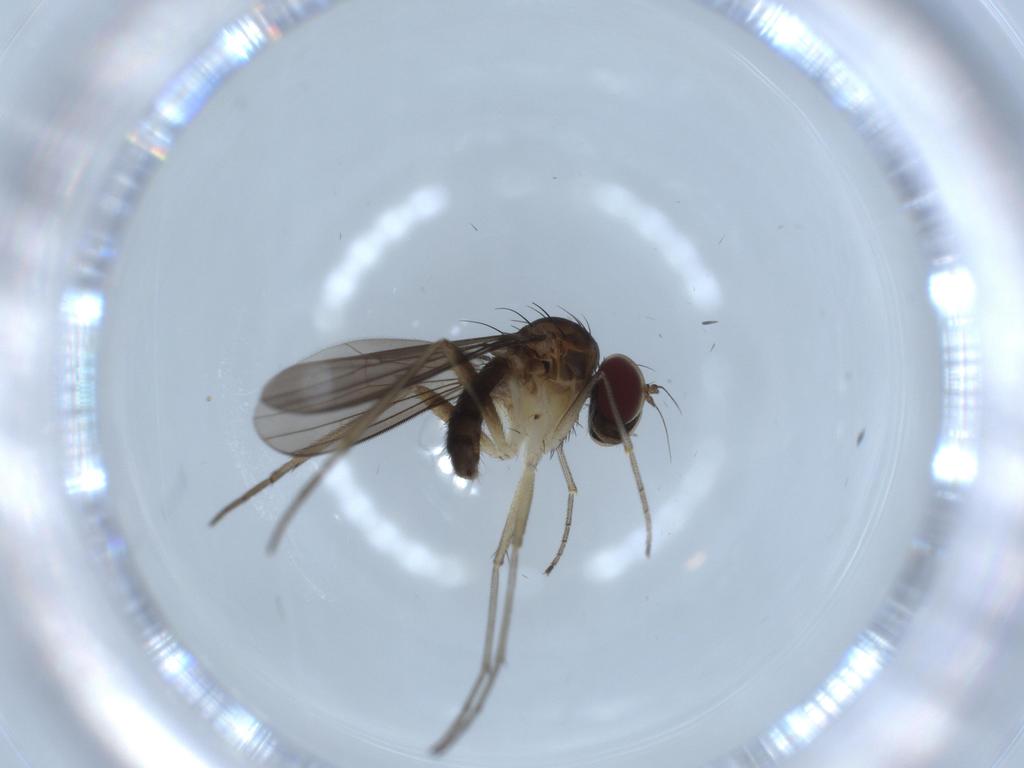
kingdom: Animalia
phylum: Arthropoda
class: Insecta
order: Diptera
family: Dolichopodidae
